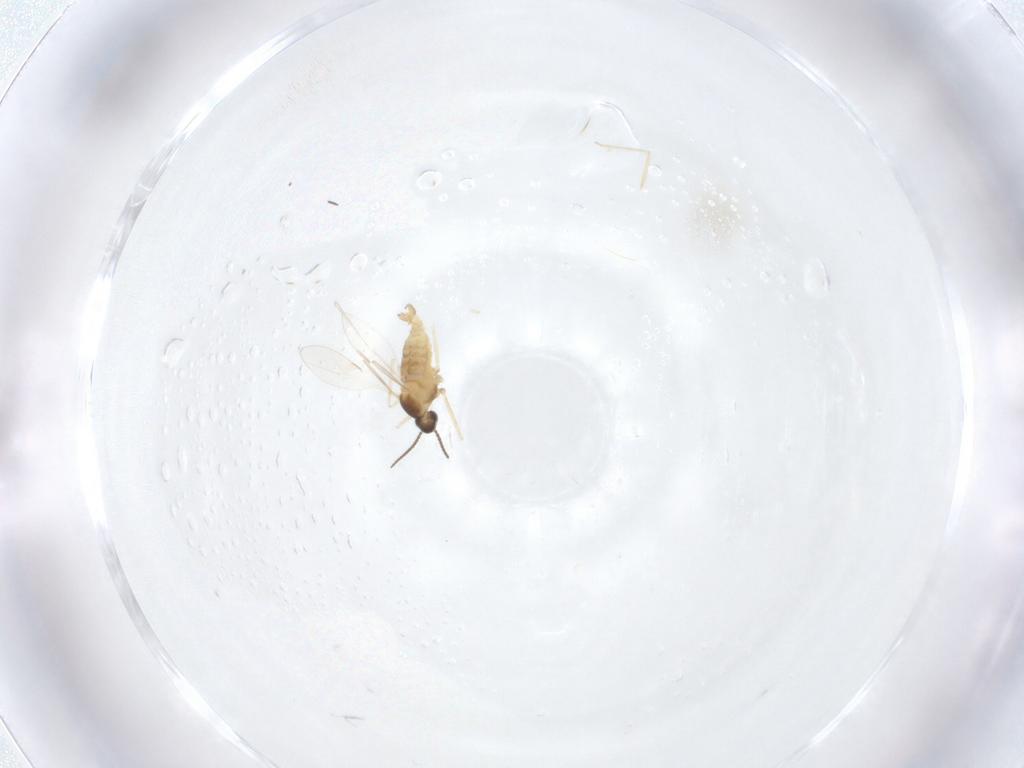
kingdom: Animalia
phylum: Arthropoda
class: Insecta
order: Diptera
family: Cecidomyiidae
